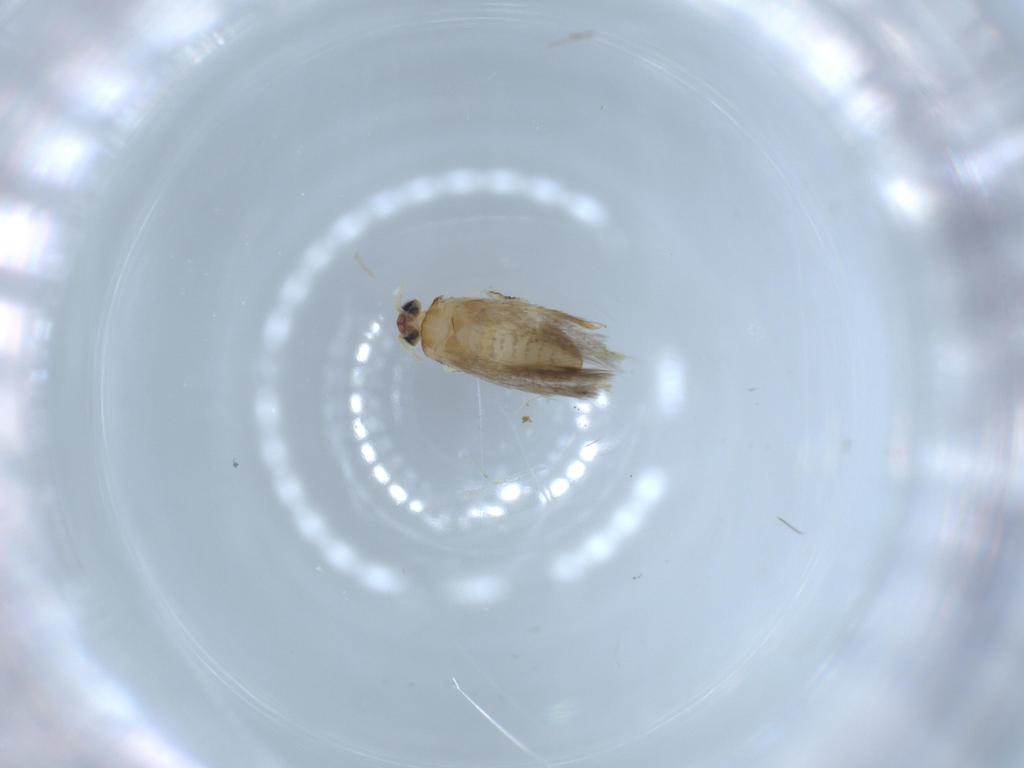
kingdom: Animalia
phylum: Arthropoda
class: Insecta
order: Lepidoptera
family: Nepticulidae
